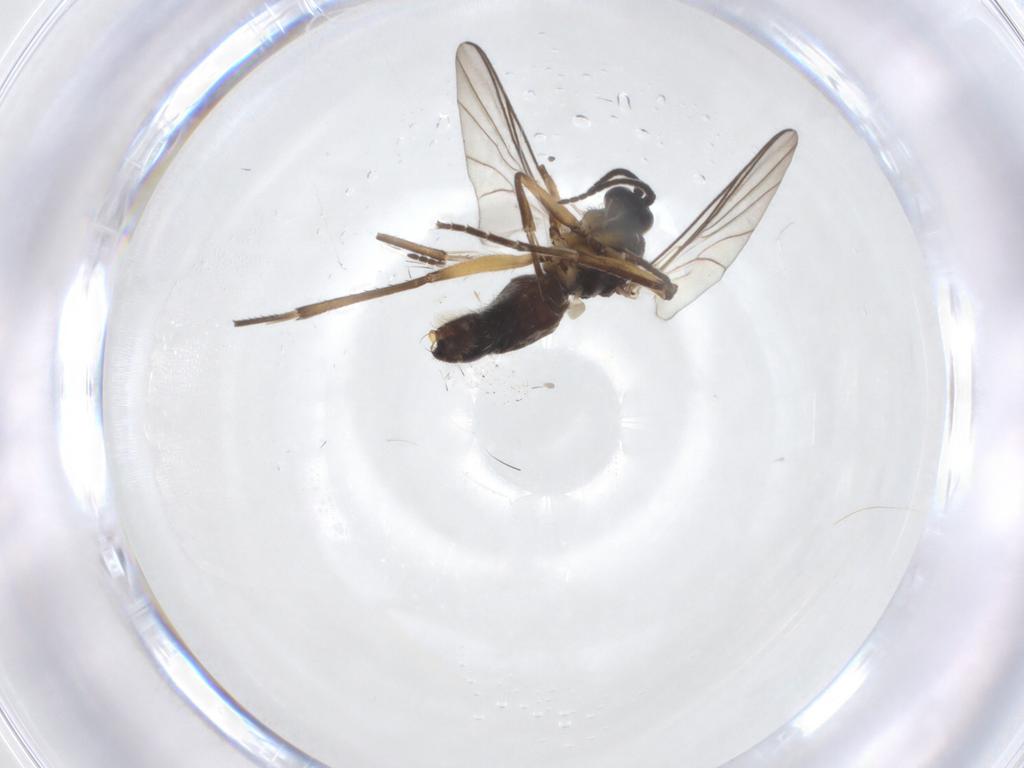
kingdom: Animalia
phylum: Arthropoda
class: Insecta
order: Diptera
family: Mycetophilidae
